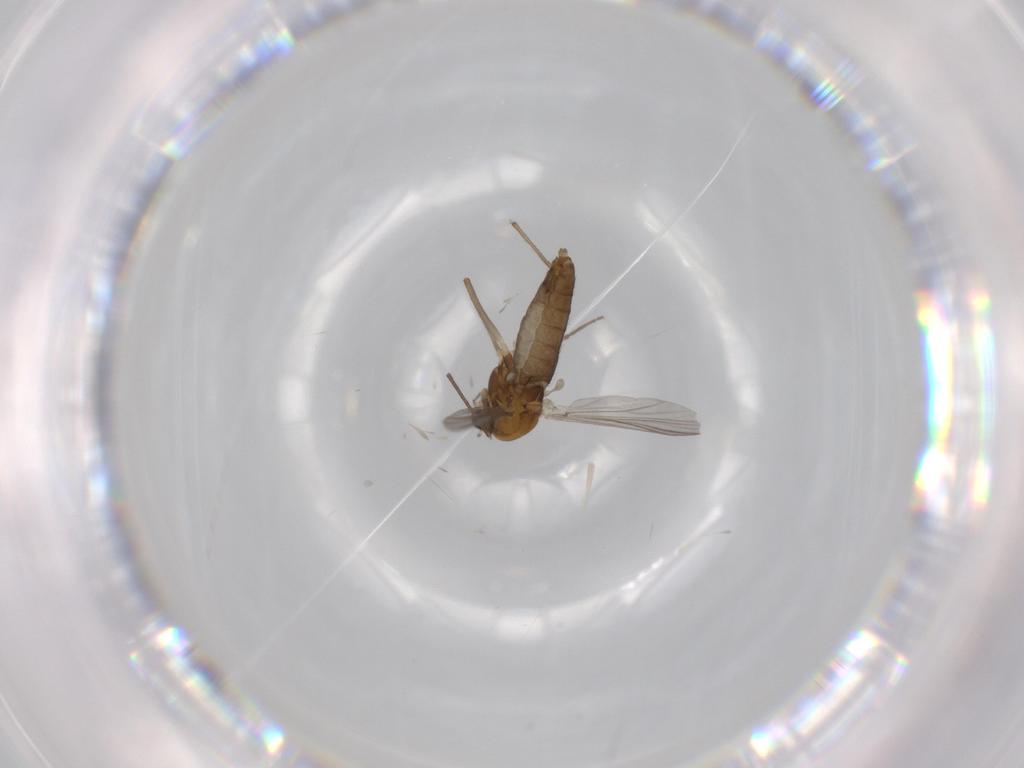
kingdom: Animalia
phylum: Arthropoda
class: Insecta
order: Diptera
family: Chironomidae
